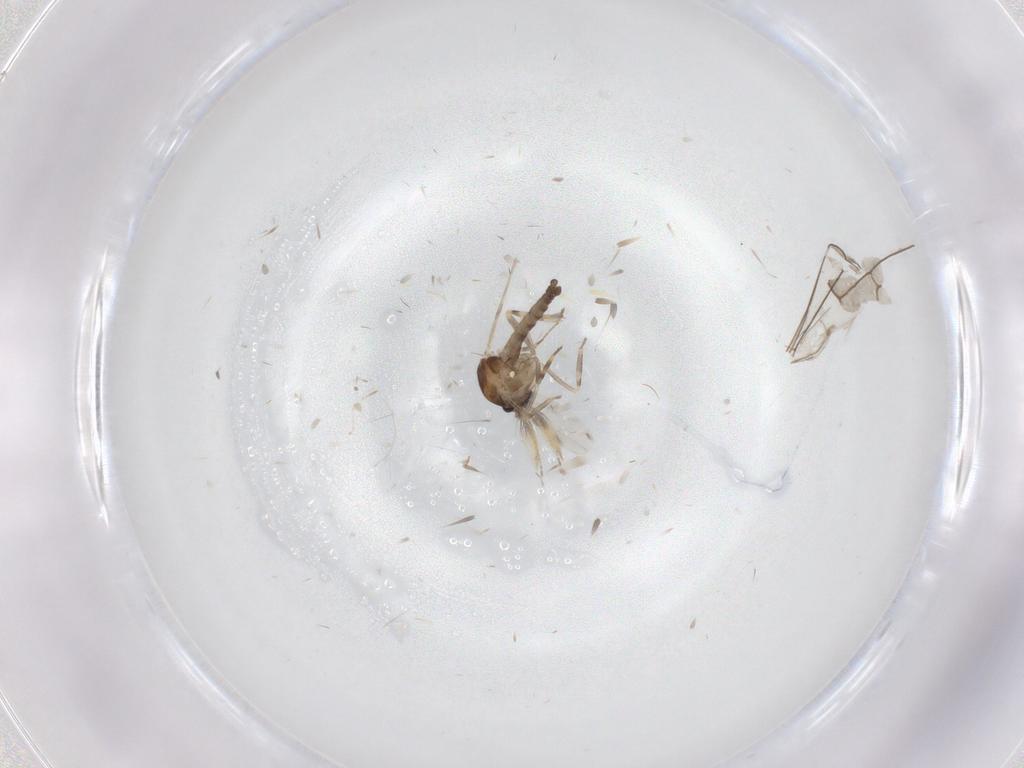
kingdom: Animalia
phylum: Arthropoda
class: Insecta
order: Diptera
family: Ceratopogonidae
